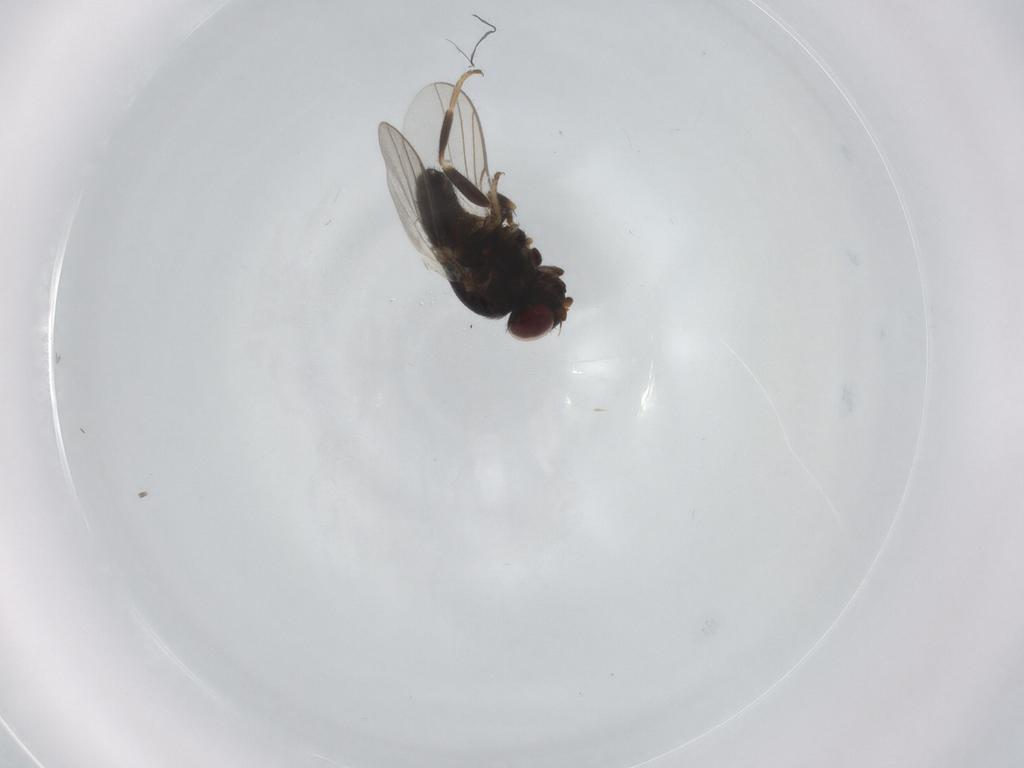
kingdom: Animalia
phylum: Arthropoda
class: Insecta
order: Diptera
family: Chloropidae
